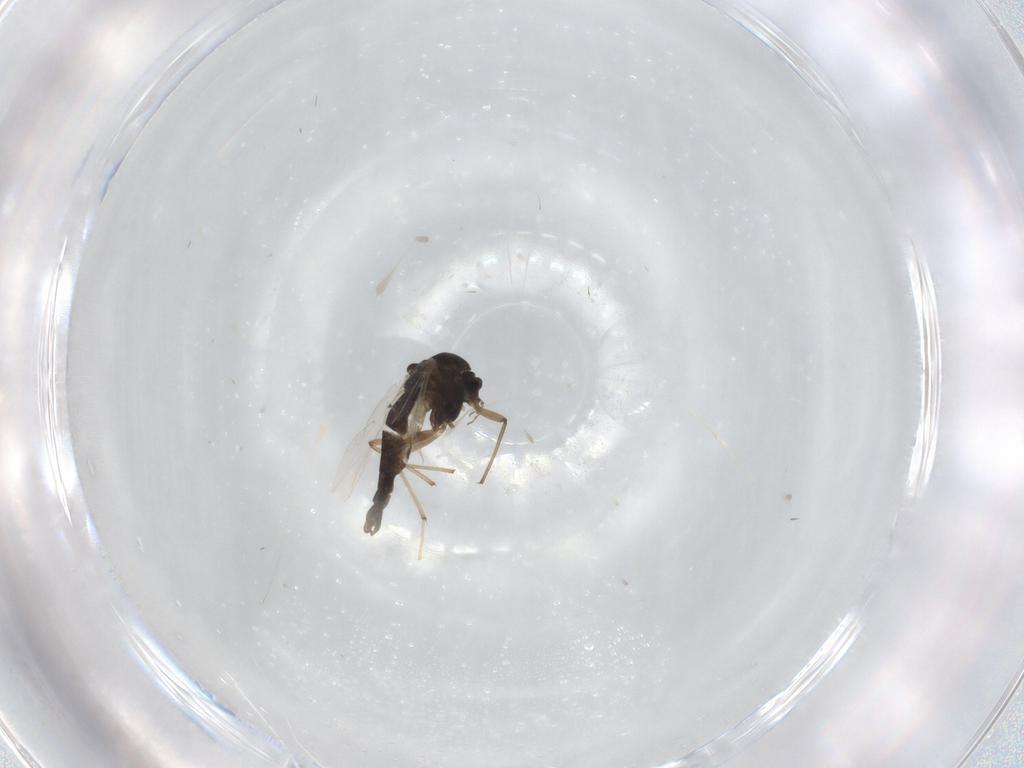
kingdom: Animalia
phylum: Arthropoda
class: Insecta
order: Diptera
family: Chironomidae
